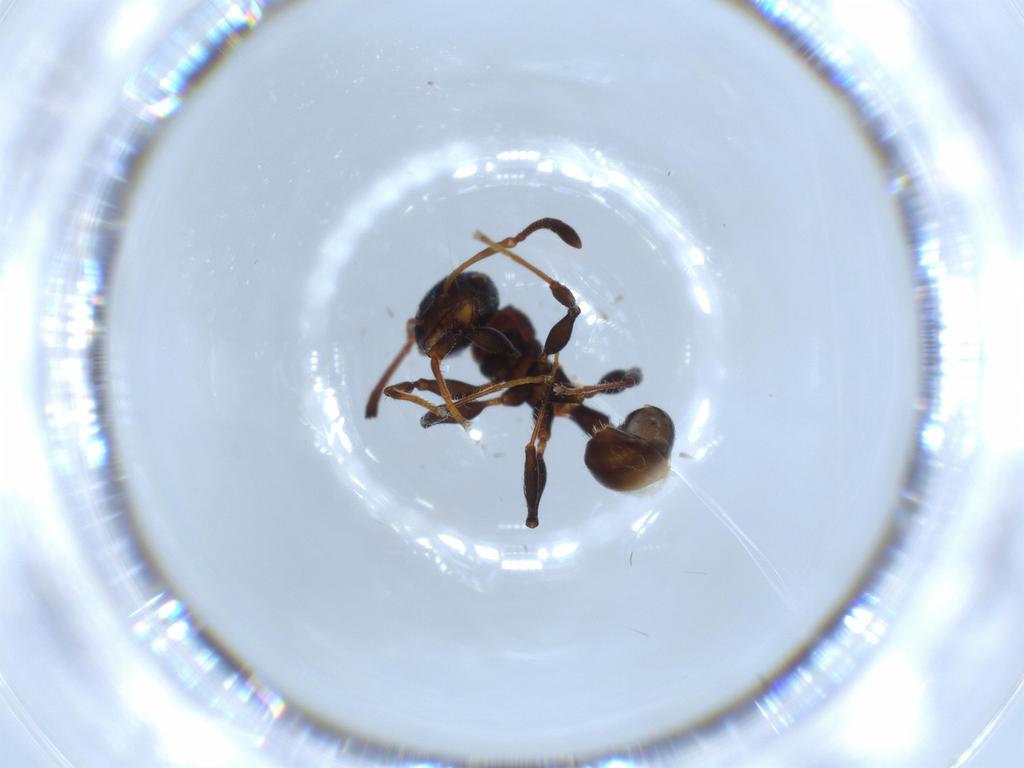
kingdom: Animalia
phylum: Arthropoda
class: Insecta
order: Hymenoptera
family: Formicidae
